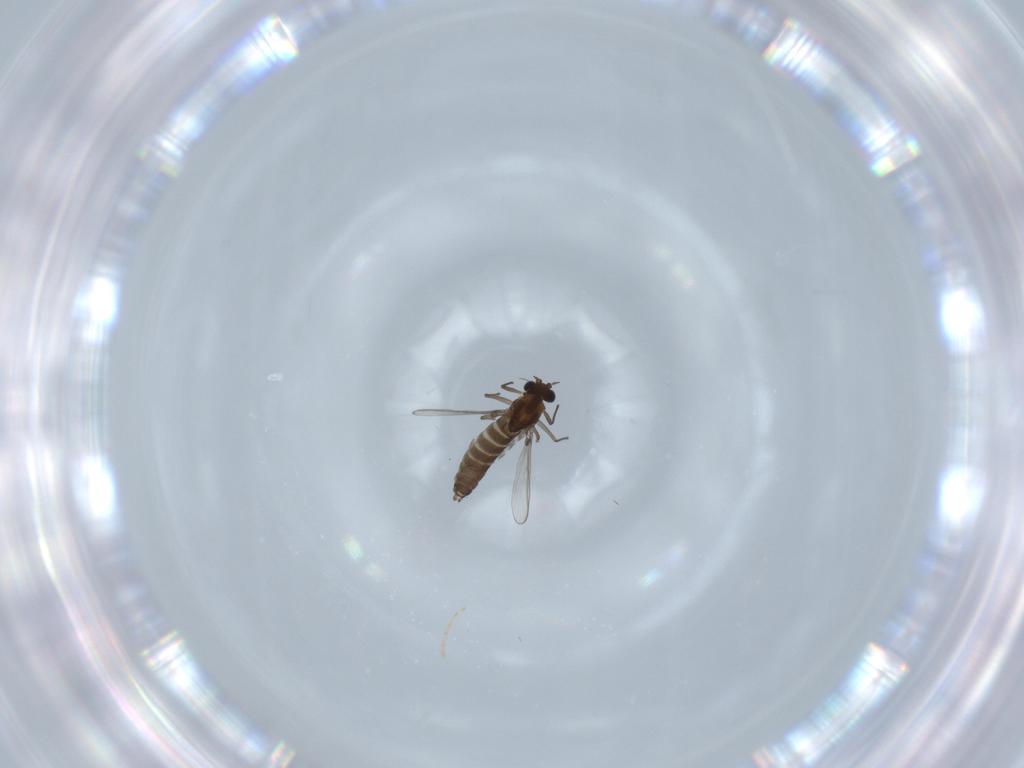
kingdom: Animalia
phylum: Arthropoda
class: Insecta
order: Diptera
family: Chironomidae
